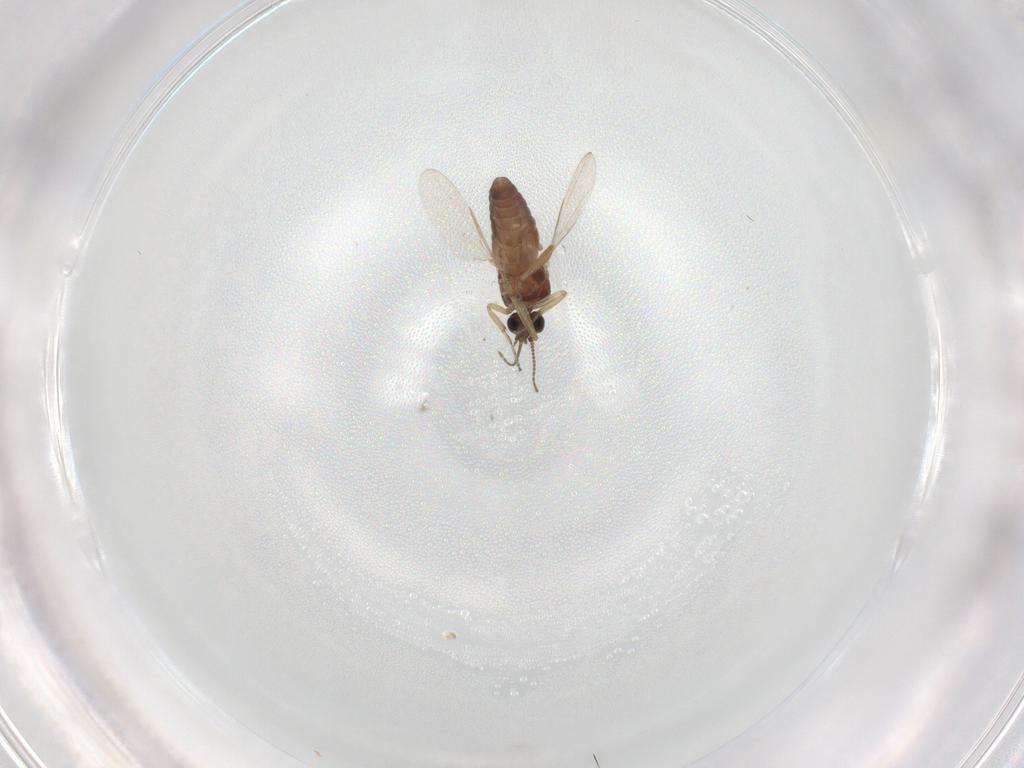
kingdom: Animalia
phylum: Arthropoda
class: Insecta
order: Diptera
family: Ceratopogonidae
